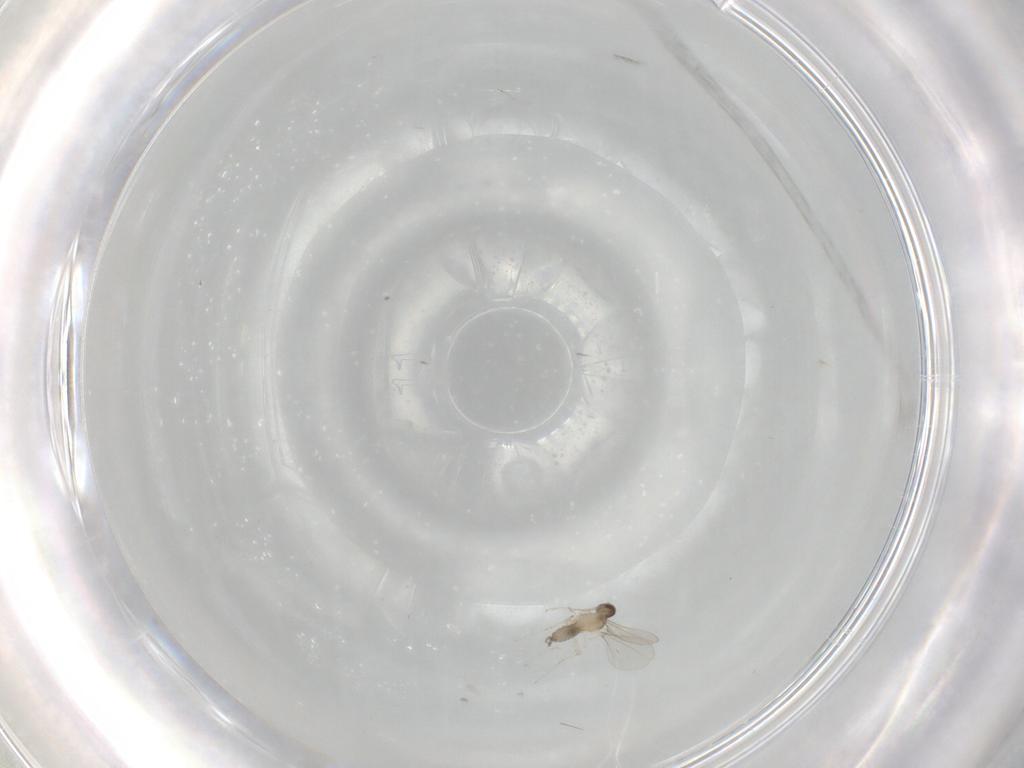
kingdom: Animalia
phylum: Arthropoda
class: Insecta
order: Diptera
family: Cecidomyiidae
